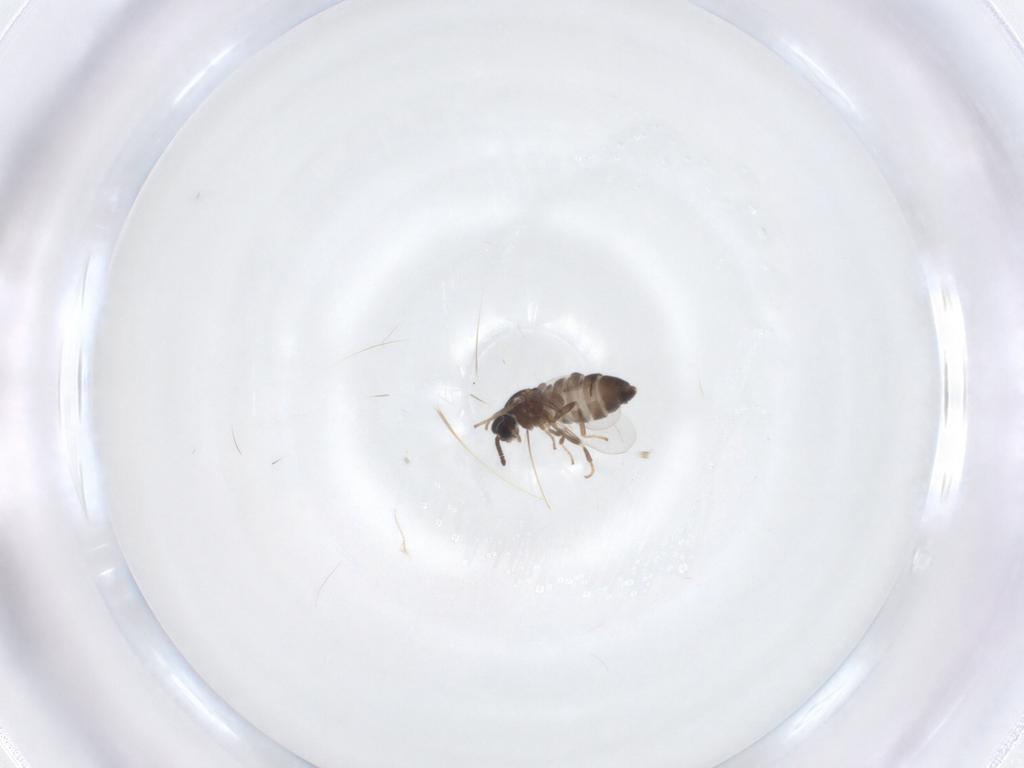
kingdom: Animalia
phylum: Arthropoda
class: Insecta
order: Diptera
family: Scatopsidae
